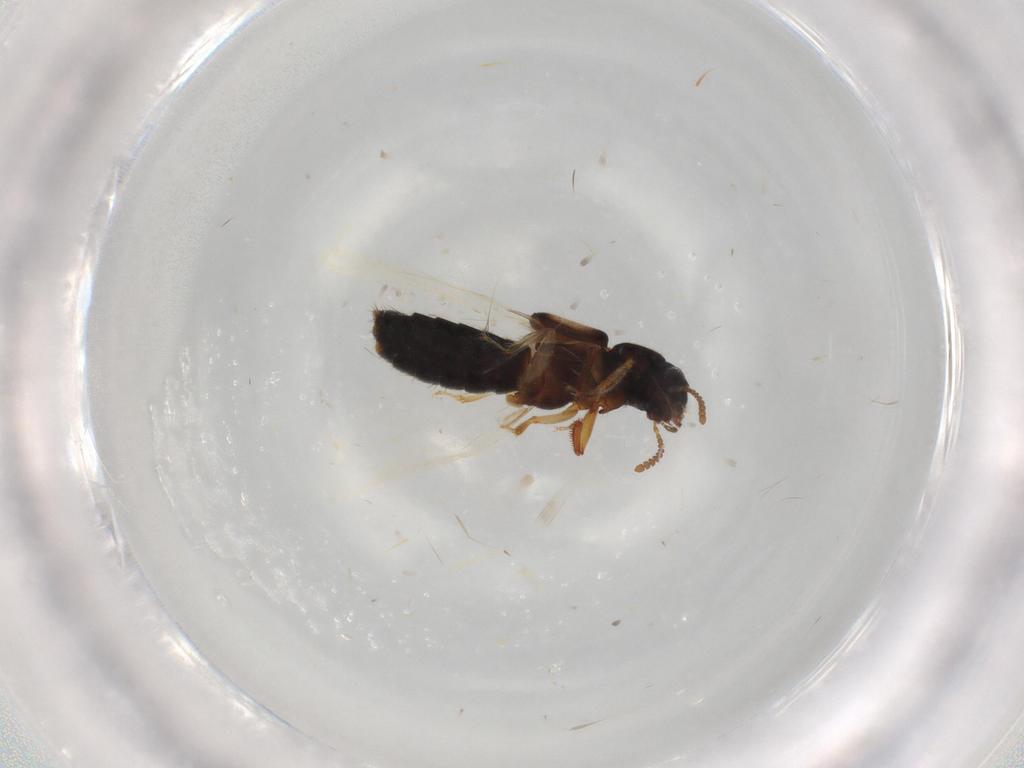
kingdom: Animalia
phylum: Arthropoda
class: Insecta
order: Coleoptera
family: Staphylinidae
